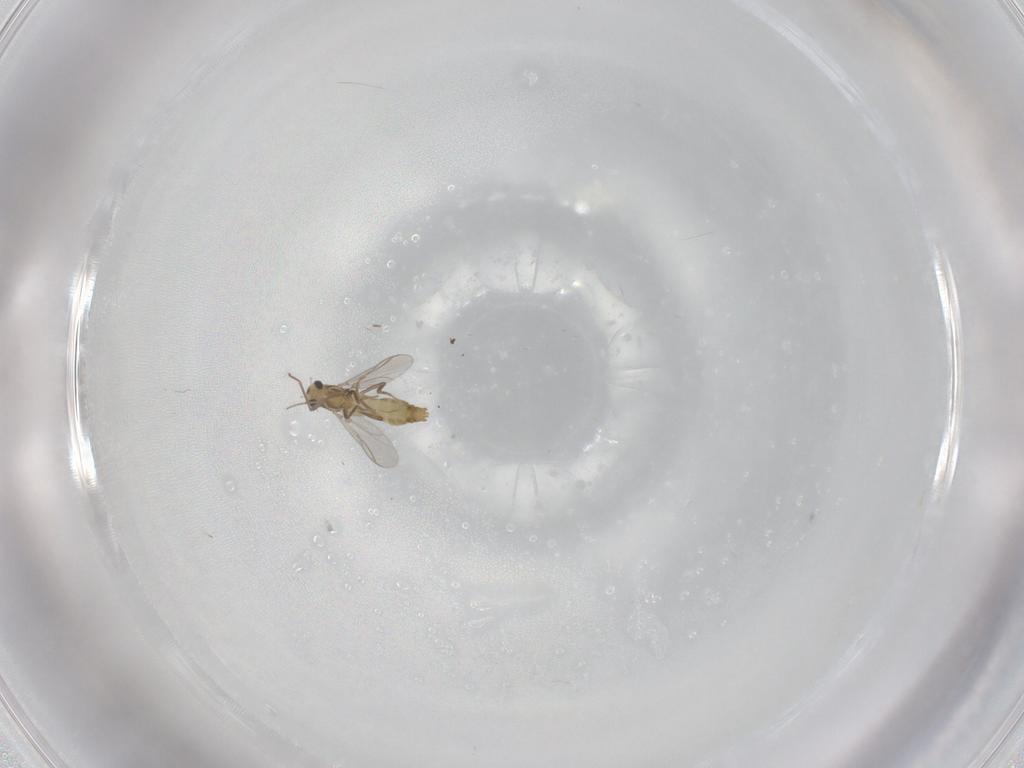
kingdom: Animalia
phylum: Arthropoda
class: Insecta
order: Diptera
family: Chironomidae
